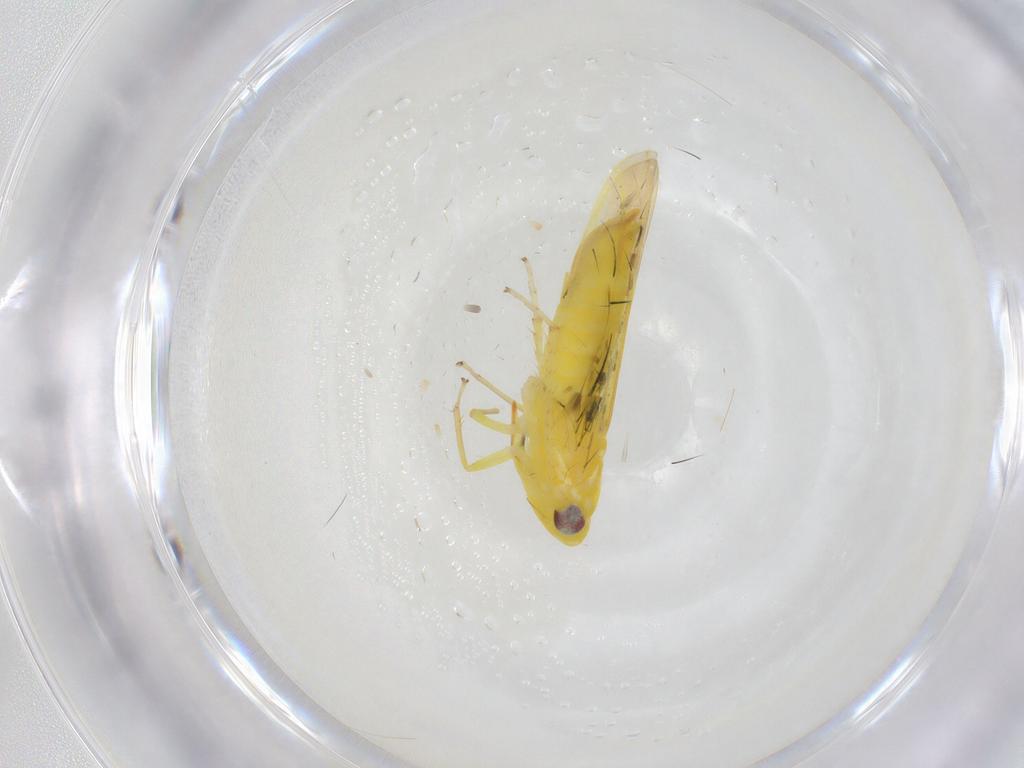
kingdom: Animalia
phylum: Arthropoda
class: Insecta
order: Hemiptera
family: Cicadellidae
